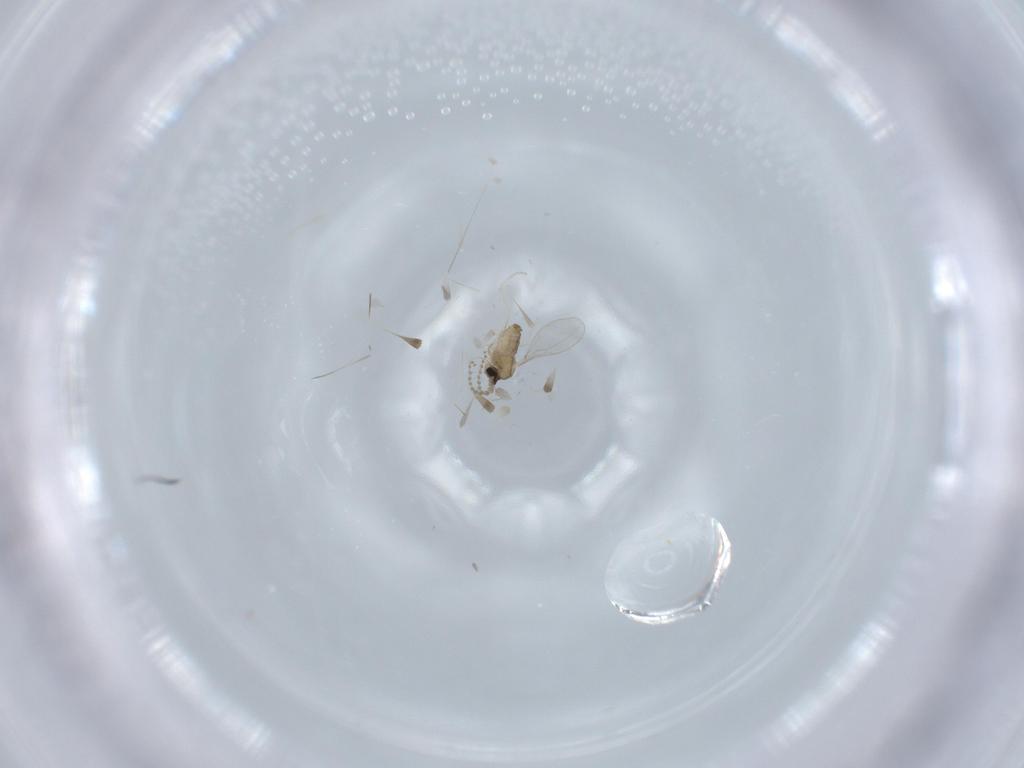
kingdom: Animalia
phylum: Arthropoda
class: Insecta
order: Diptera
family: Cecidomyiidae
